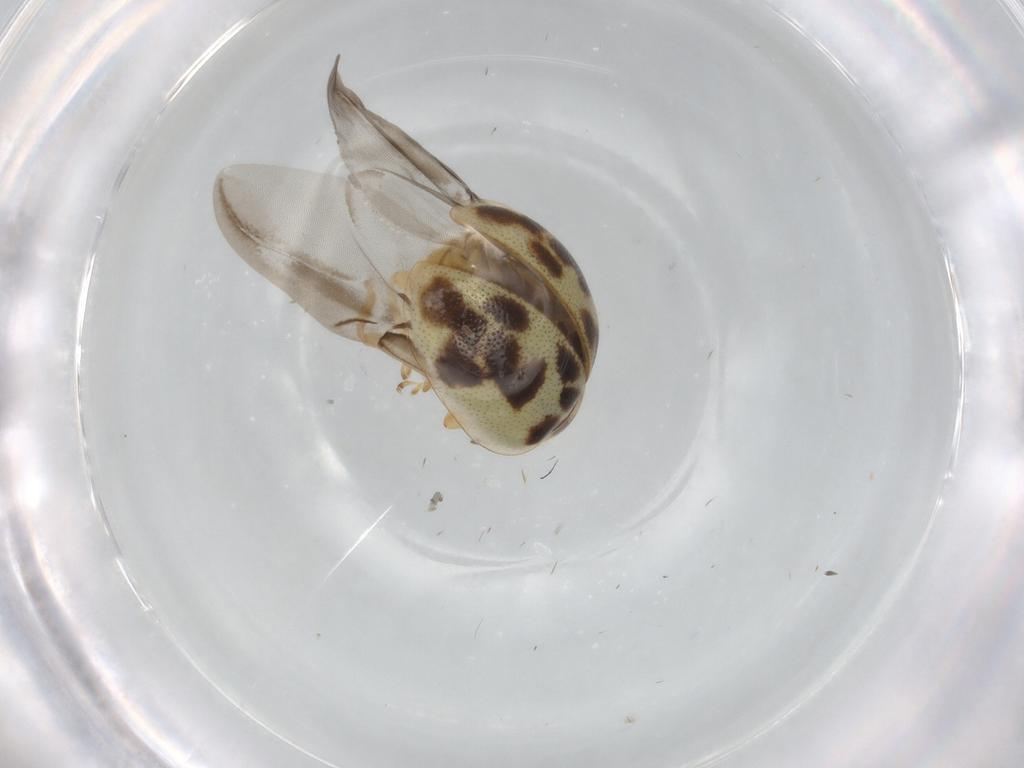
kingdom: Animalia
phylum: Arthropoda
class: Insecta
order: Coleoptera
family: Coccinellidae
